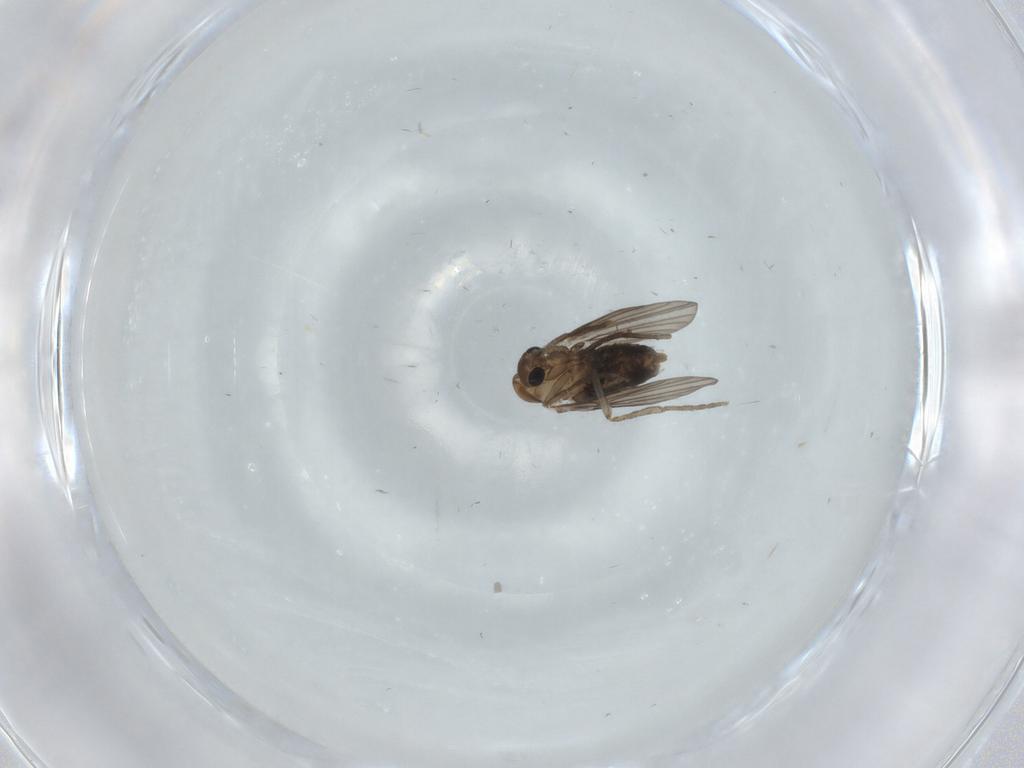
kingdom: Animalia
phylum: Arthropoda
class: Insecta
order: Diptera
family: Psychodidae
